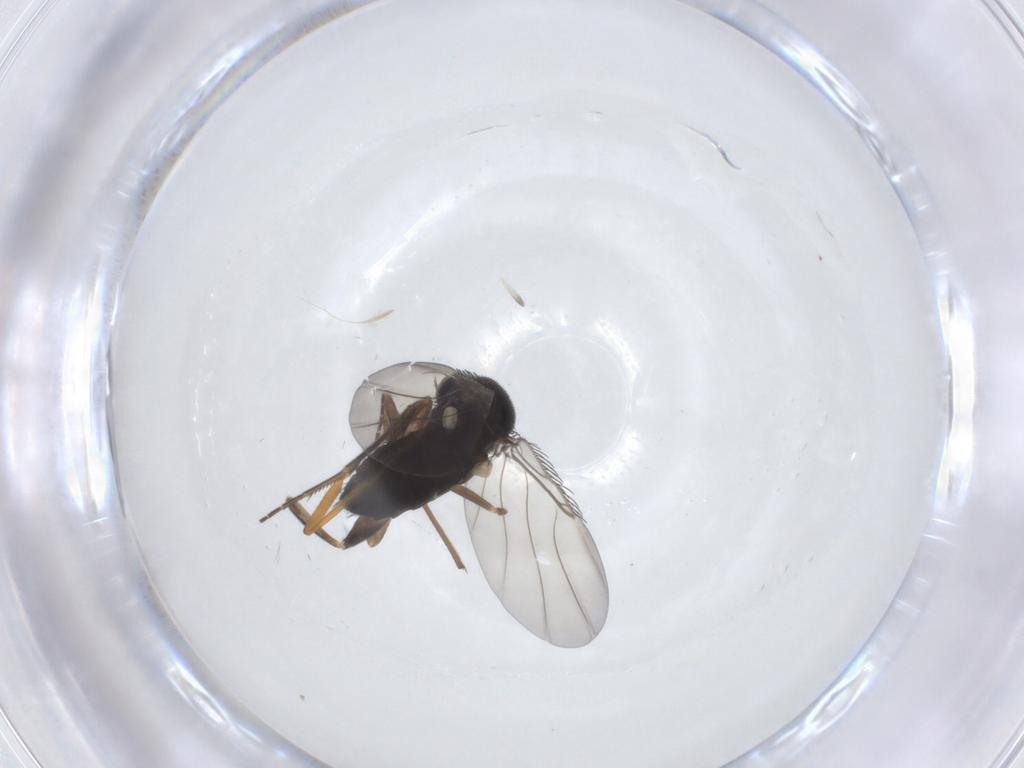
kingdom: Animalia
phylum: Arthropoda
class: Insecta
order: Diptera
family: Phoridae
